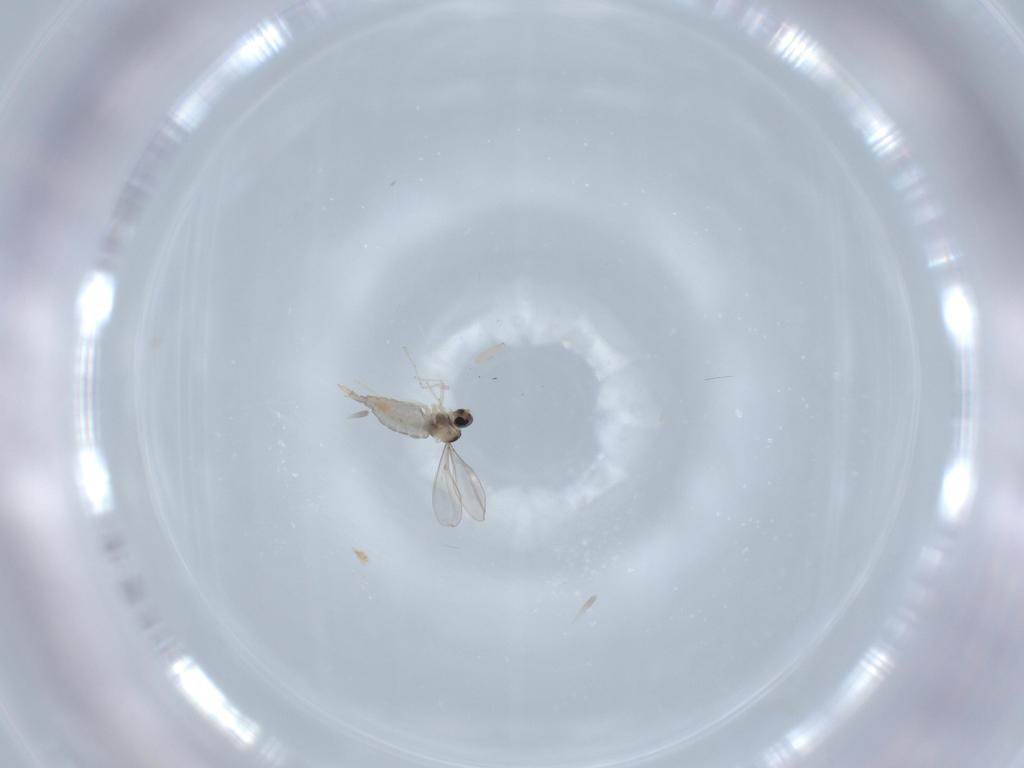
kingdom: Animalia
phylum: Arthropoda
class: Insecta
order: Diptera
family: Cecidomyiidae
